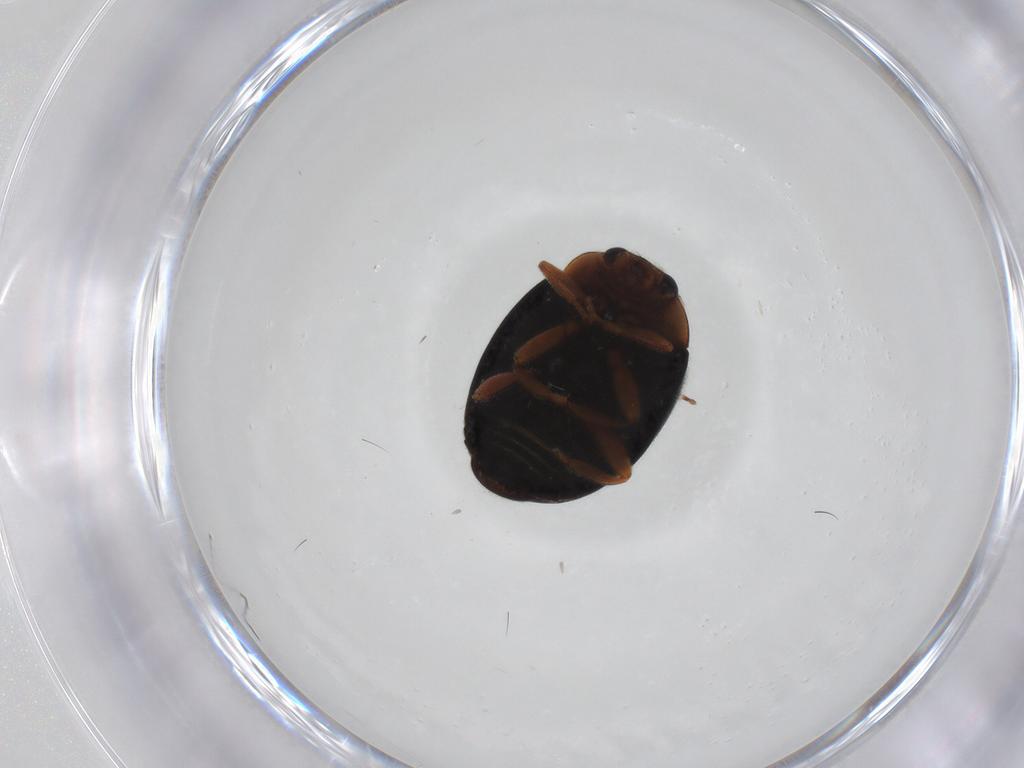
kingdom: Animalia
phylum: Arthropoda
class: Insecta
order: Coleoptera
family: Coccinellidae
